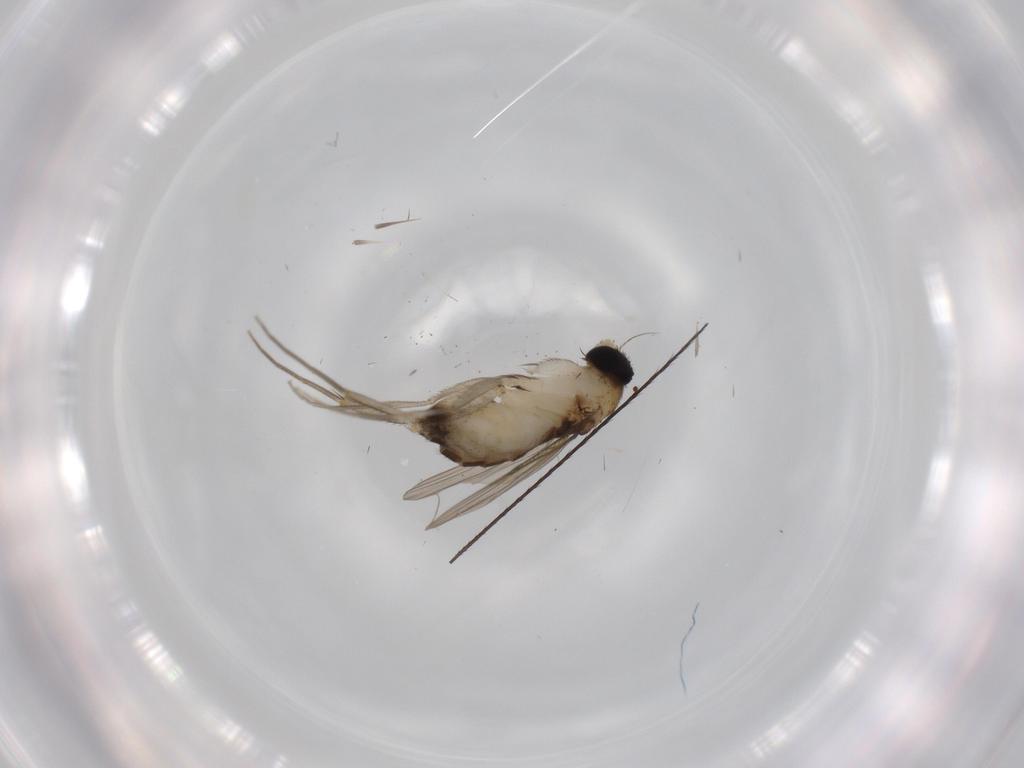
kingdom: Animalia
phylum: Arthropoda
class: Insecta
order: Diptera
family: Phoridae
